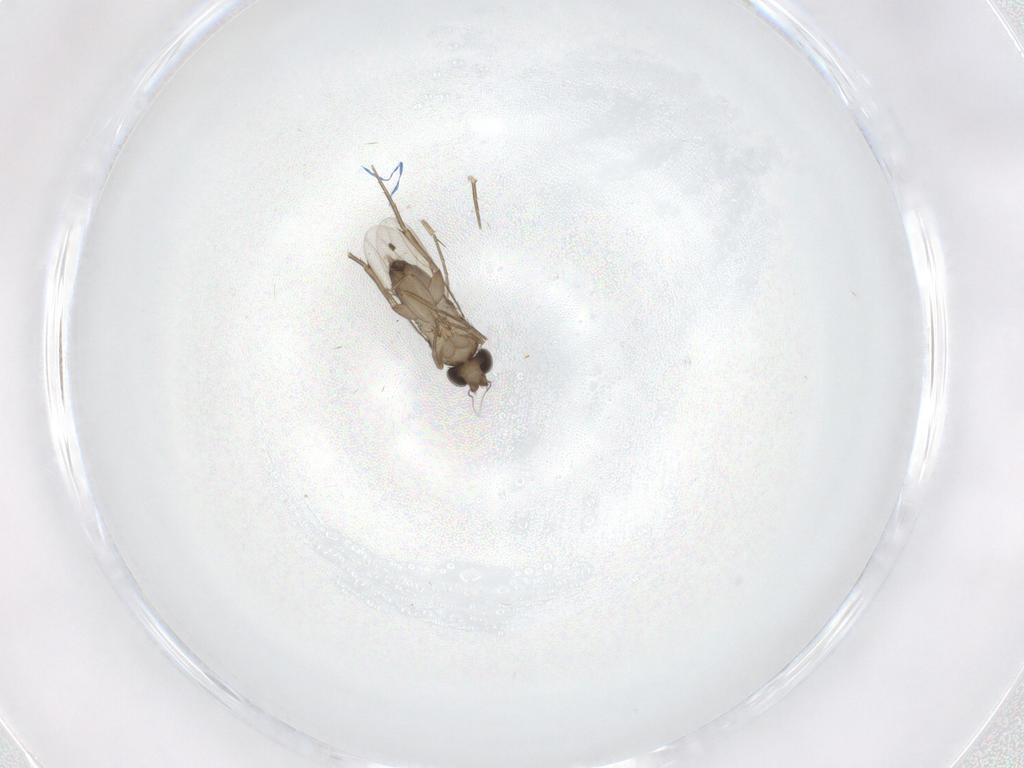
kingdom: Animalia
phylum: Arthropoda
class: Insecta
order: Diptera
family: Phoridae
